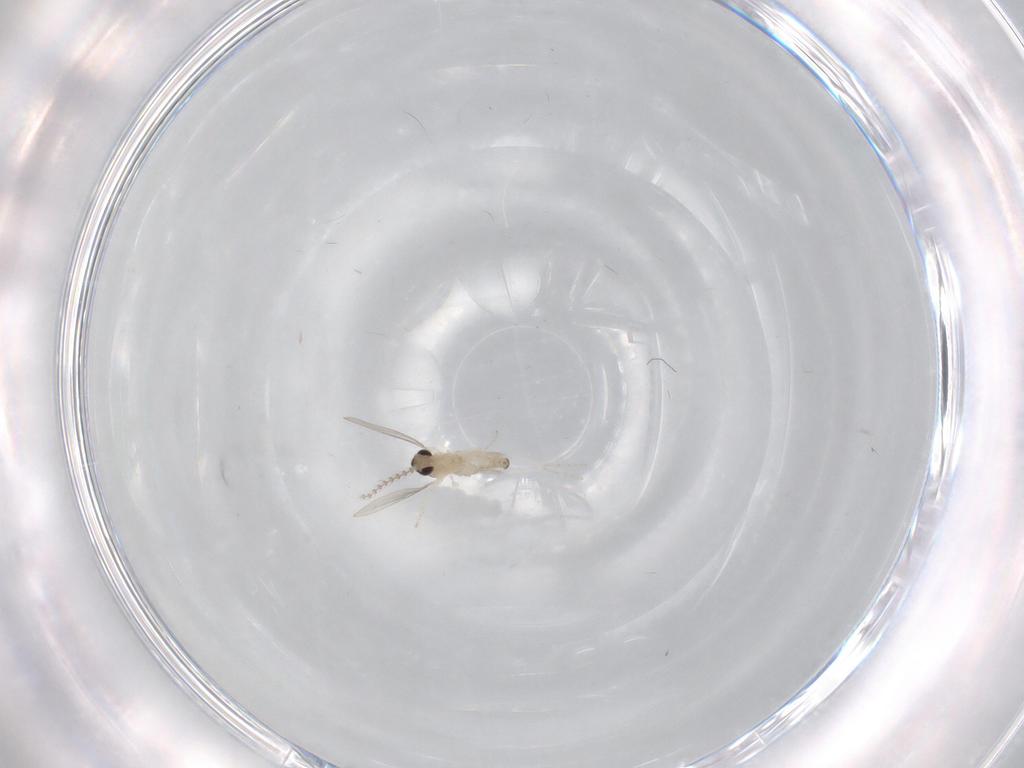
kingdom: Animalia
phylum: Arthropoda
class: Insecta
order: Diptera
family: Cecidomyiidae
